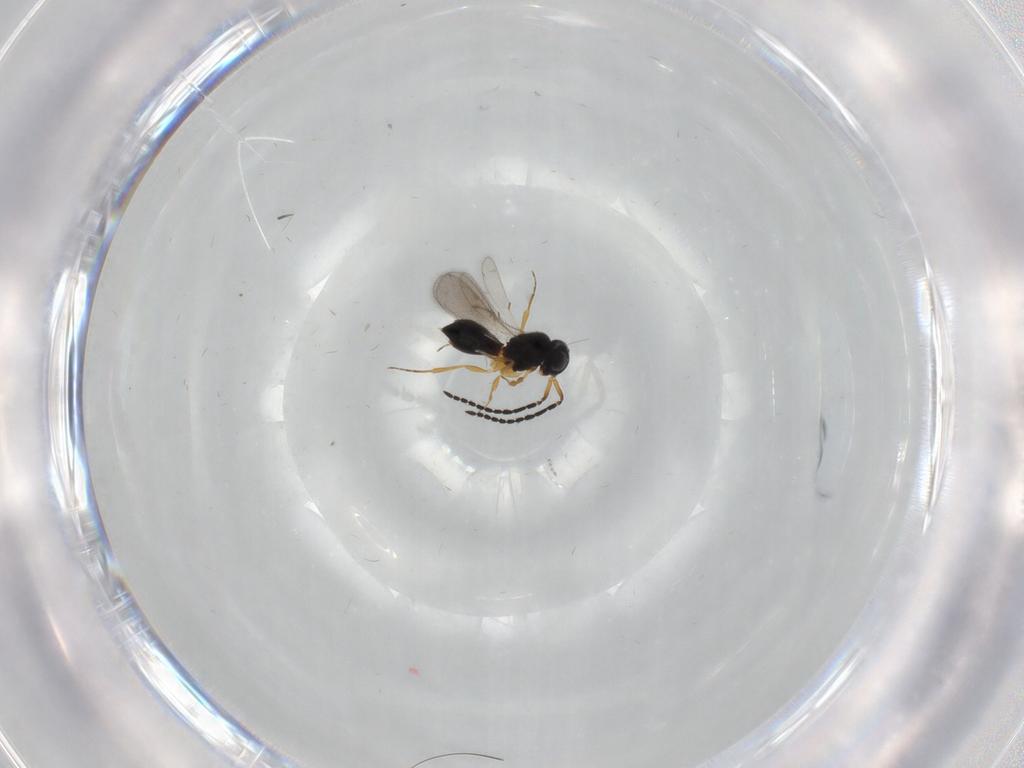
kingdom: Animalia
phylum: Arthropoda
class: Insecta
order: Hymenoptera
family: Scelionidae
